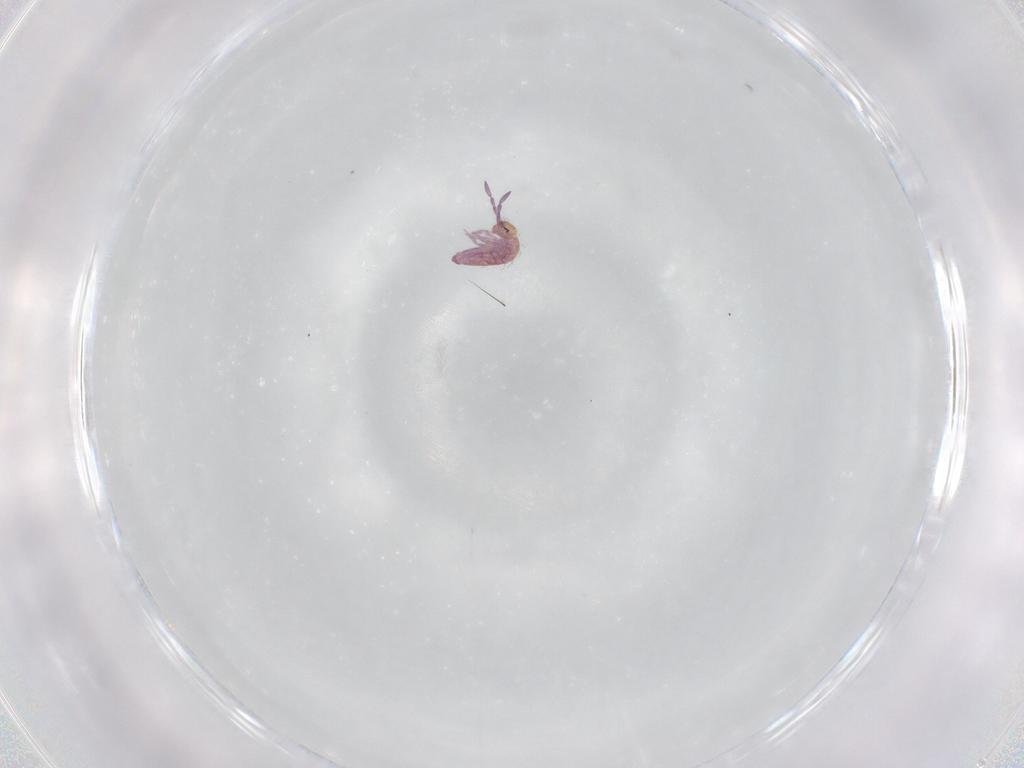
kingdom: Animalia
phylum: Arthropoda
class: Collembola
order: Entomobryomorpha
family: Entomobryidae
